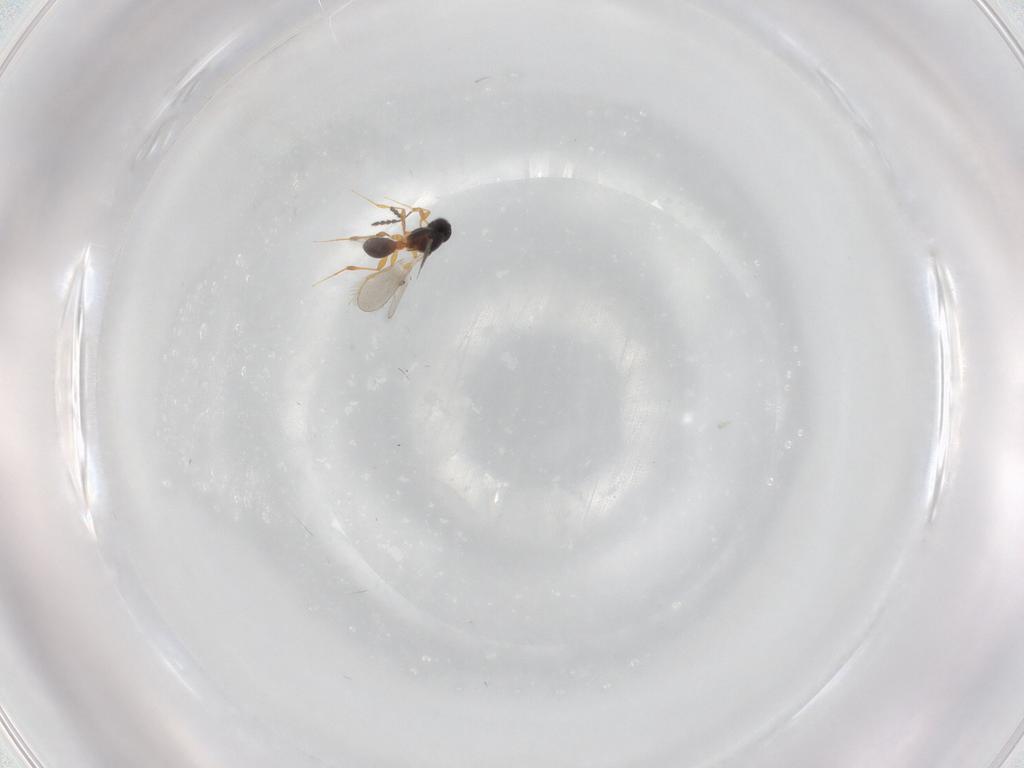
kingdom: Animalia
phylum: Arthropoda
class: Insecta
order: Hymenoptera
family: Platygastridae
